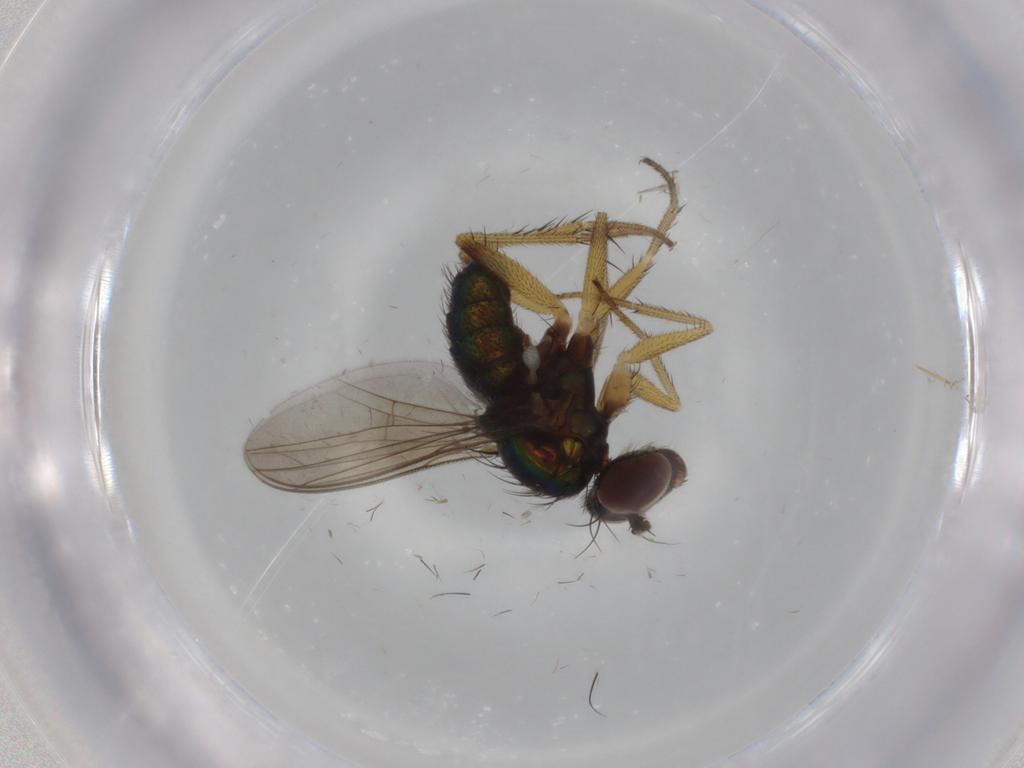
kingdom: Animalia
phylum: Arthropoda
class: Insecta
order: Diptera
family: Dolichopodidae
